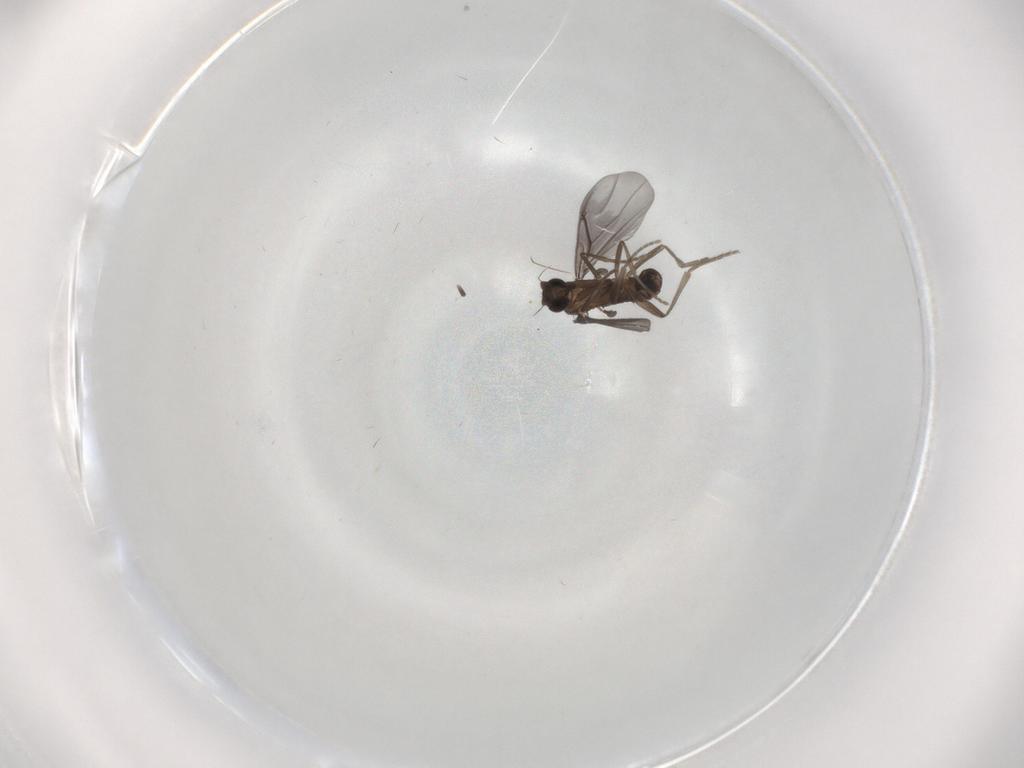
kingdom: Animalia
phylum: Arthropoda
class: Insecta
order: Diptera
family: Phoridae
